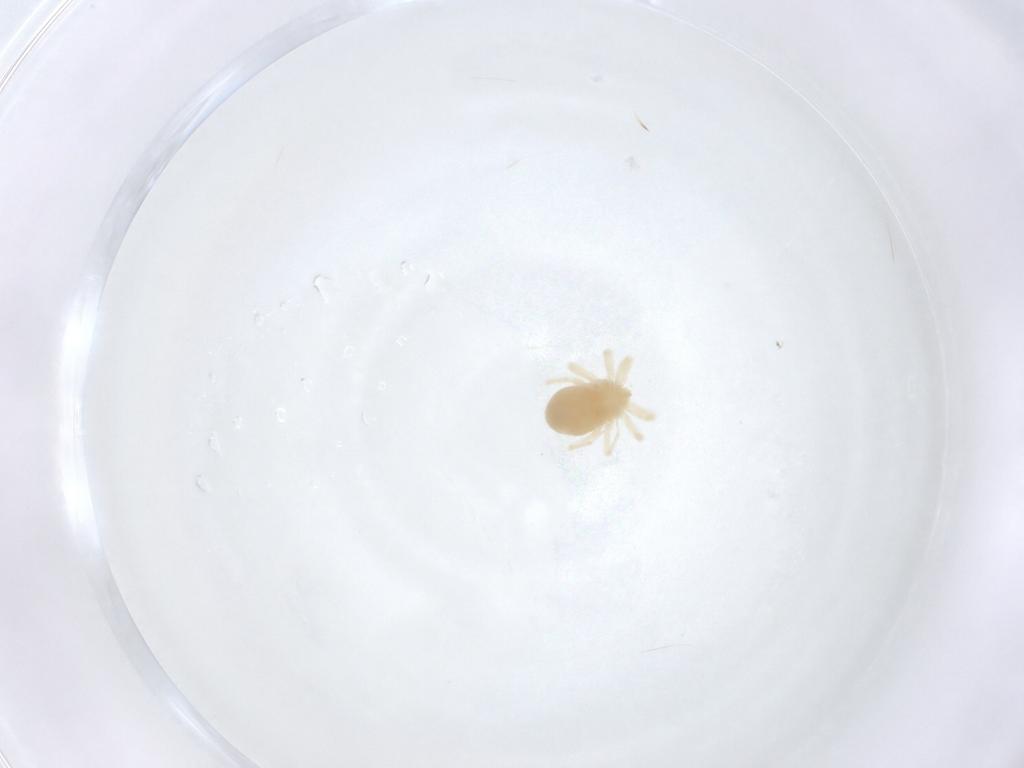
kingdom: Animalia
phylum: Arthropoda
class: Arachnida
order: Trombidiformes
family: Anystidae
